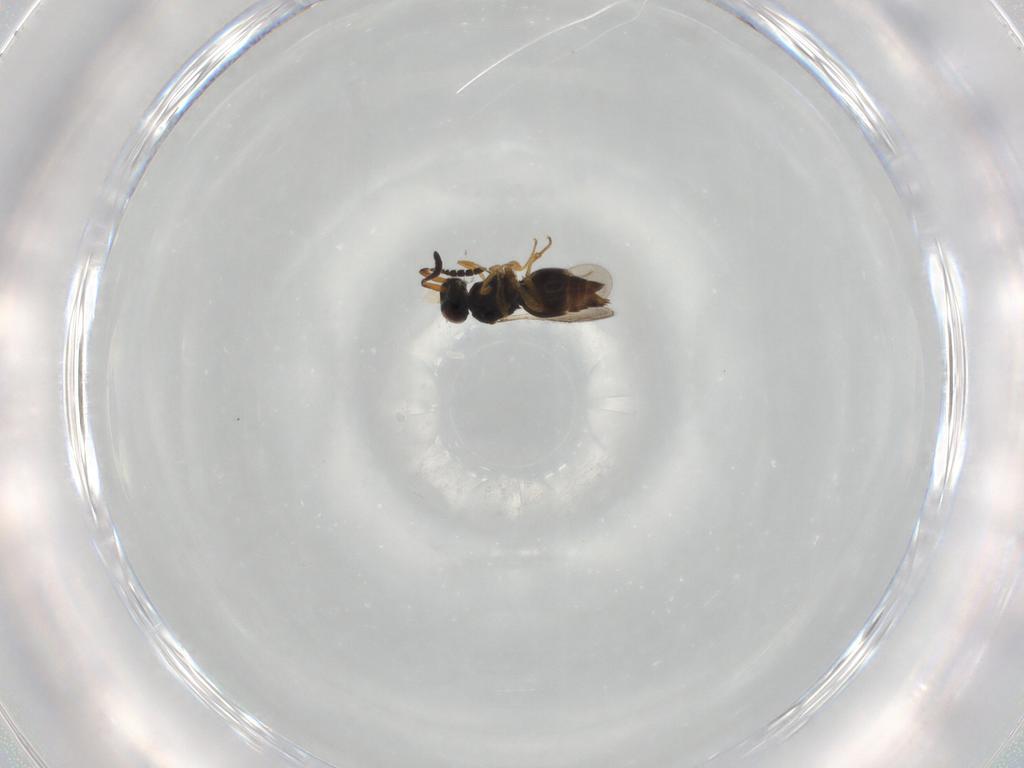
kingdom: Animalia
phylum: Arthropoda
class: Insecta
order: Hymenoptera
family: Ceraphronidae
